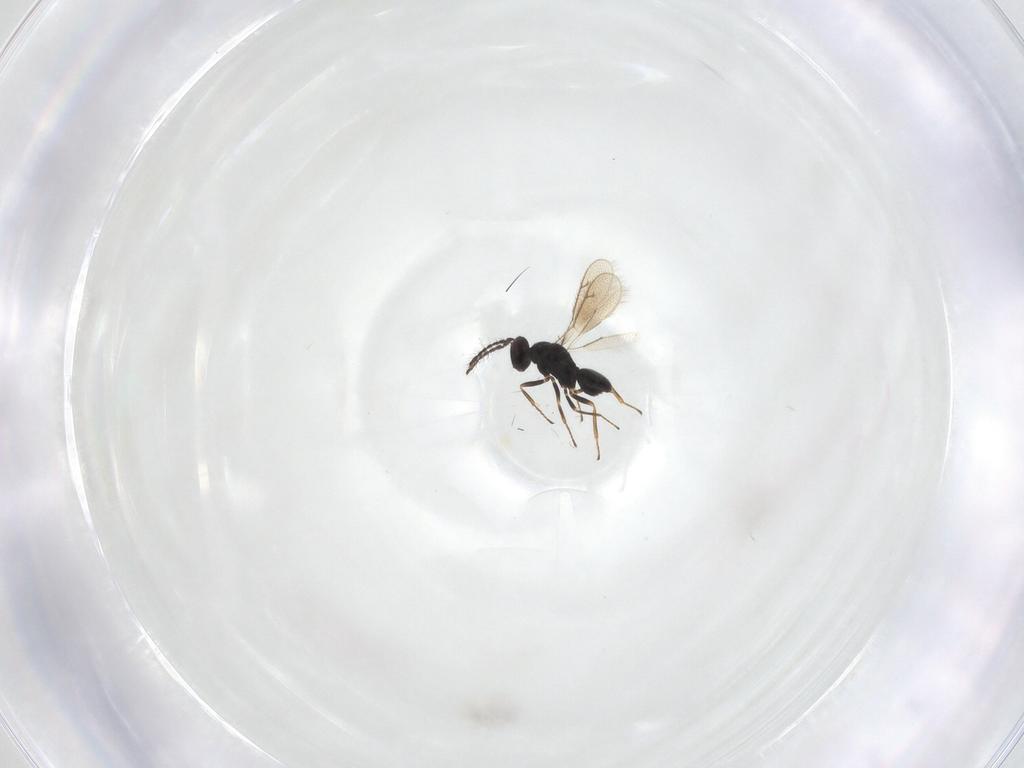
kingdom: Animalia
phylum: Arthropoda
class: Insecta
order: Hymenoptera
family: Pteromalidae
